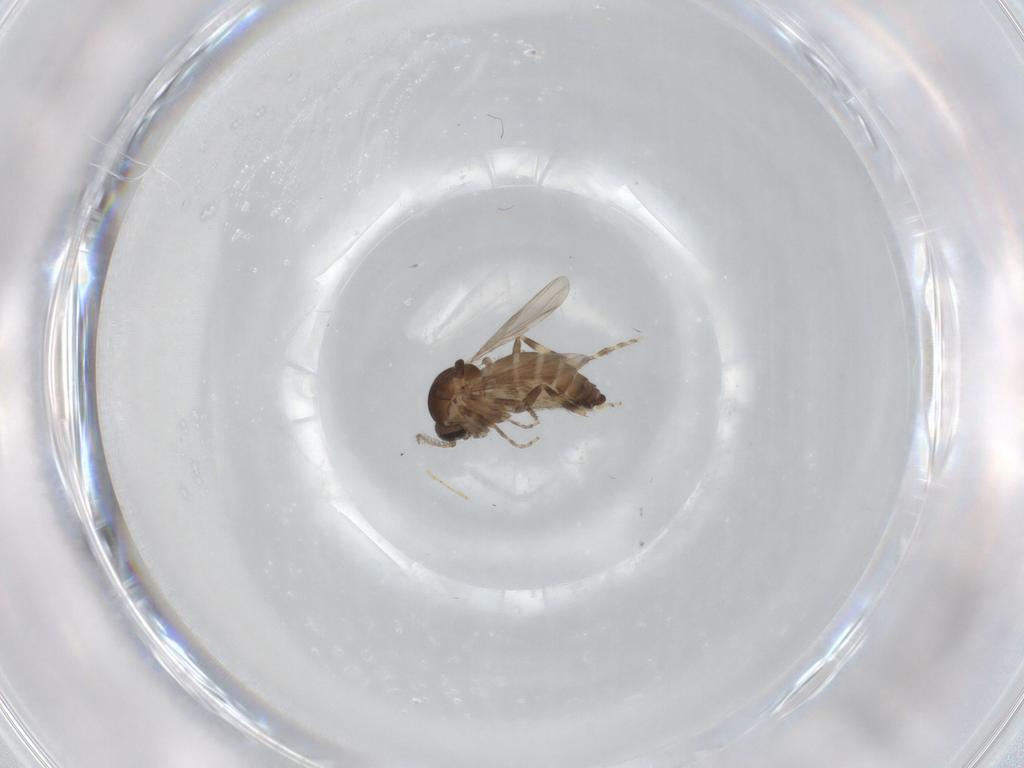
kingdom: Animalia
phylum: Arthropoda
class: Insecta
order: Diptera
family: Ceratopogonidae
